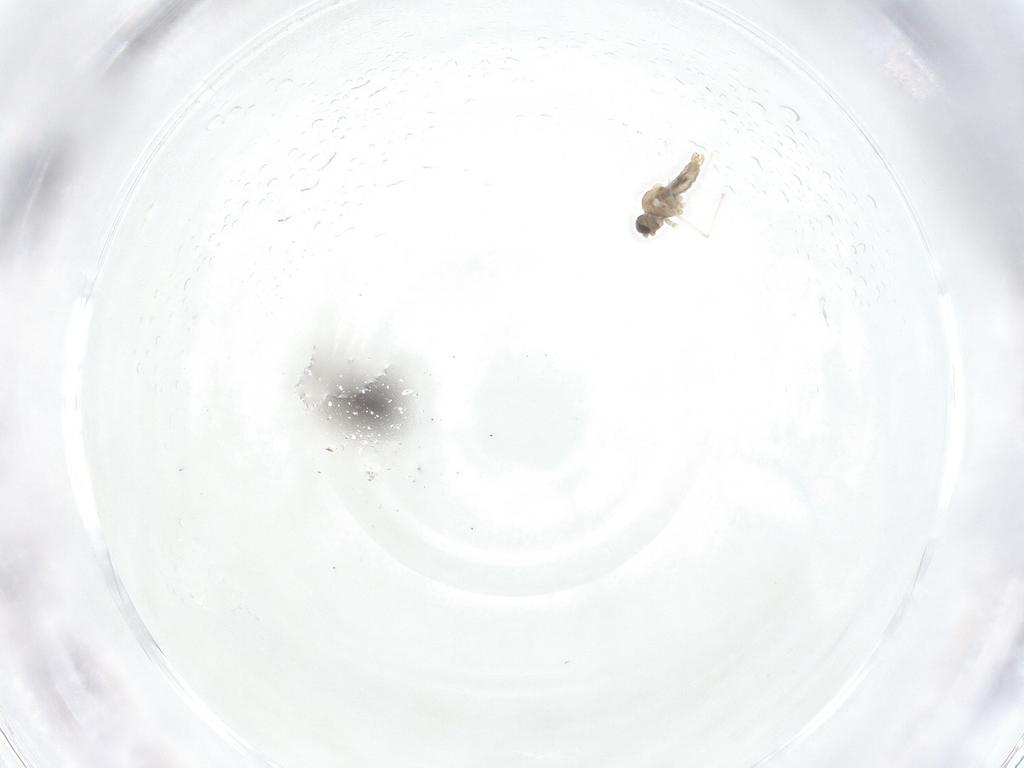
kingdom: Animalia
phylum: Arthropoda
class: Insecta
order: Diptera
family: Cecidomyiidae
